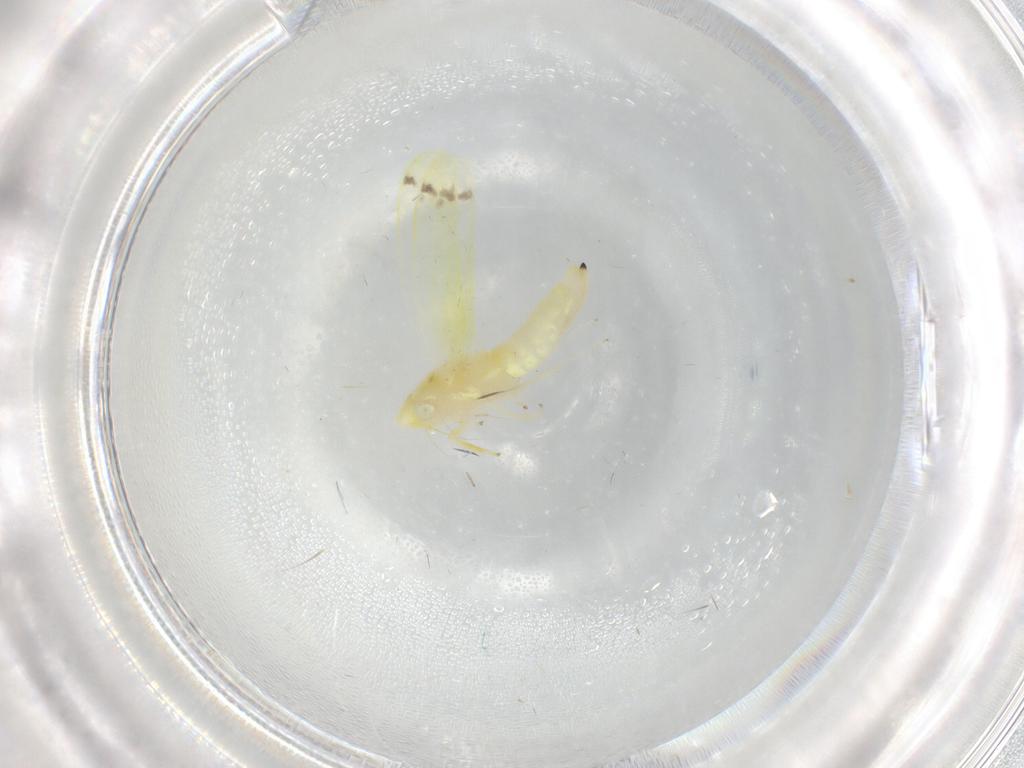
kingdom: Animalia
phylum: Arthropoda
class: Insecta
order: Hemiptera
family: Cicadellidae
